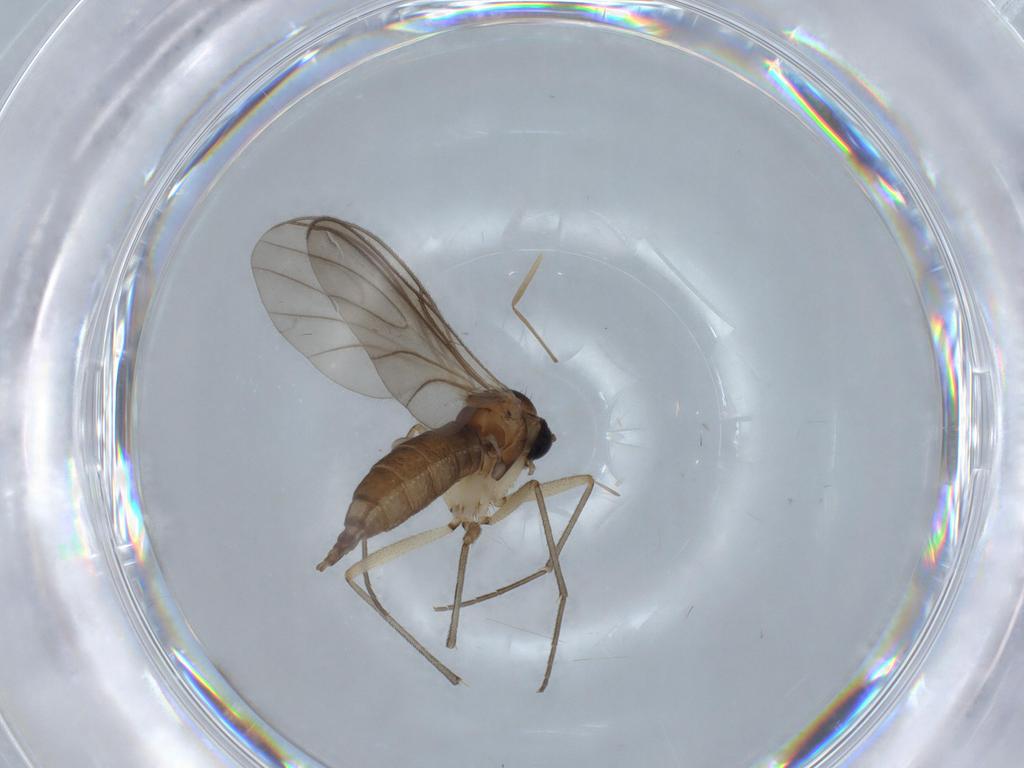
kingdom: Animalia
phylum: Arthropoda
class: Insecta
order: Diptera
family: Sciaridae
